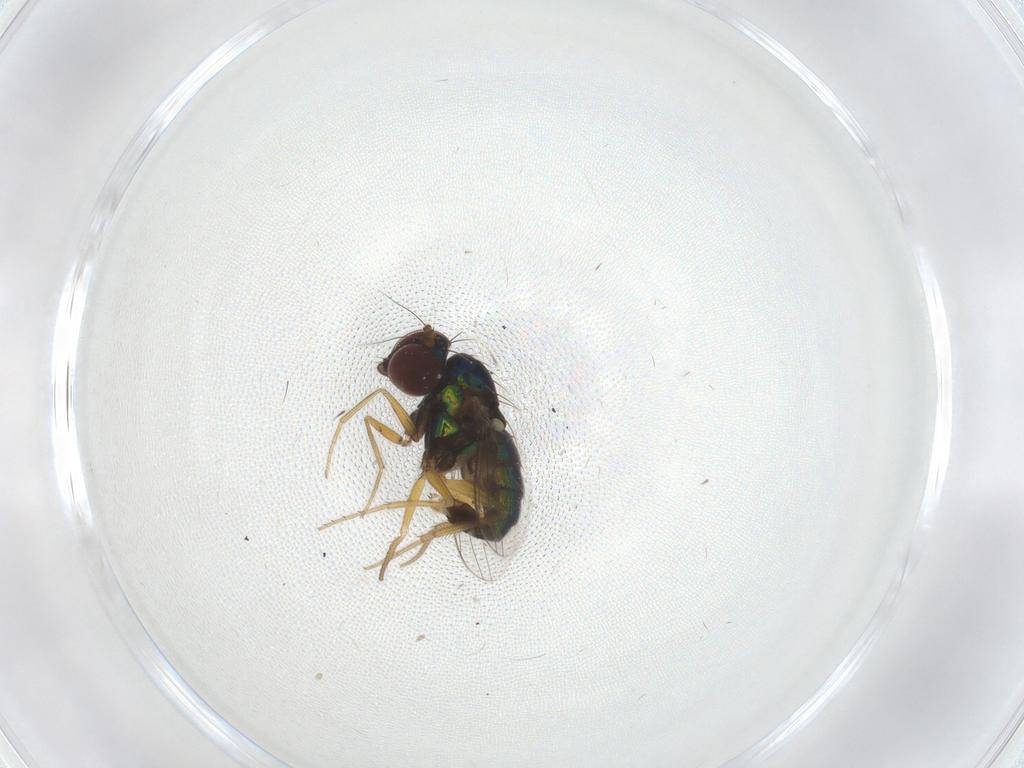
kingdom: Animalia
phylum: Arthropoda
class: Insecta
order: Diptera
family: Dolichopodidae
